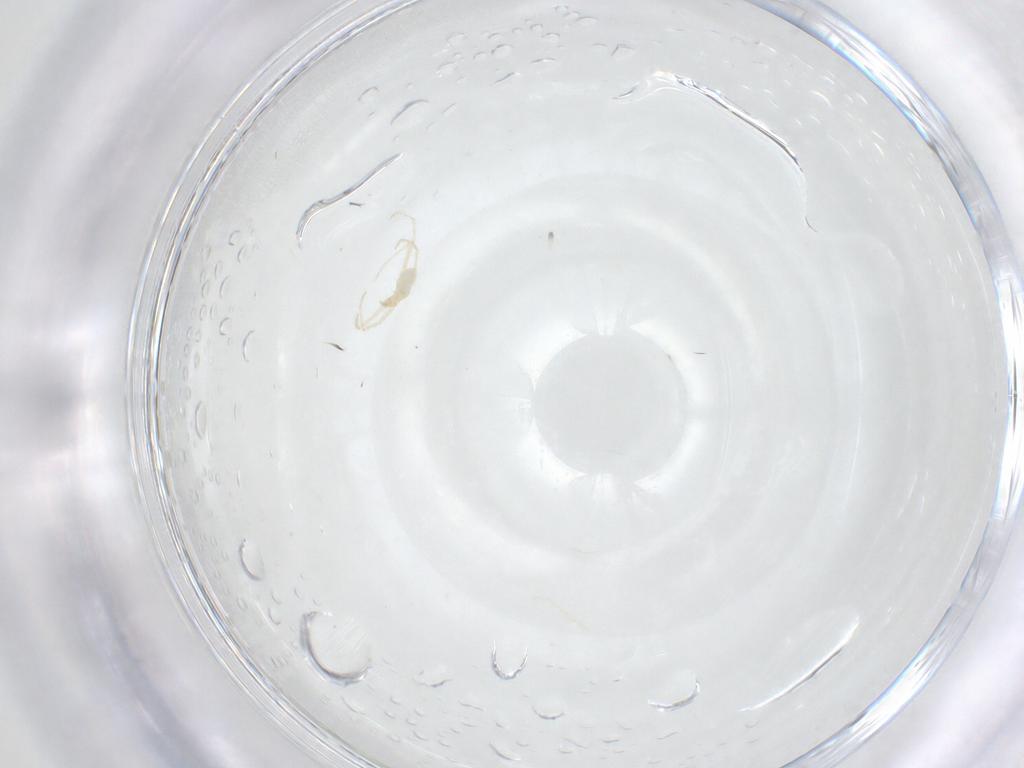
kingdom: Animalia
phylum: Arthropoda
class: Arachnida
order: Trombidiformes
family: Erythraeidae
